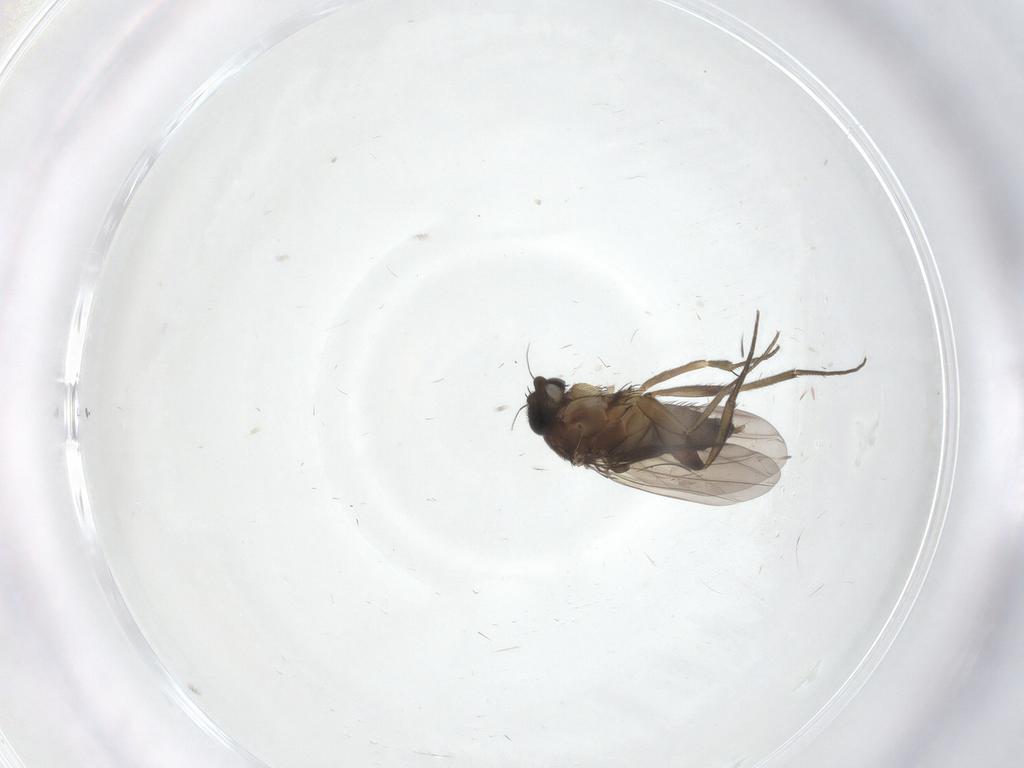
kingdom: Animalia
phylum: Arthropoda
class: Insecta
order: Diptera
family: Phoridae
